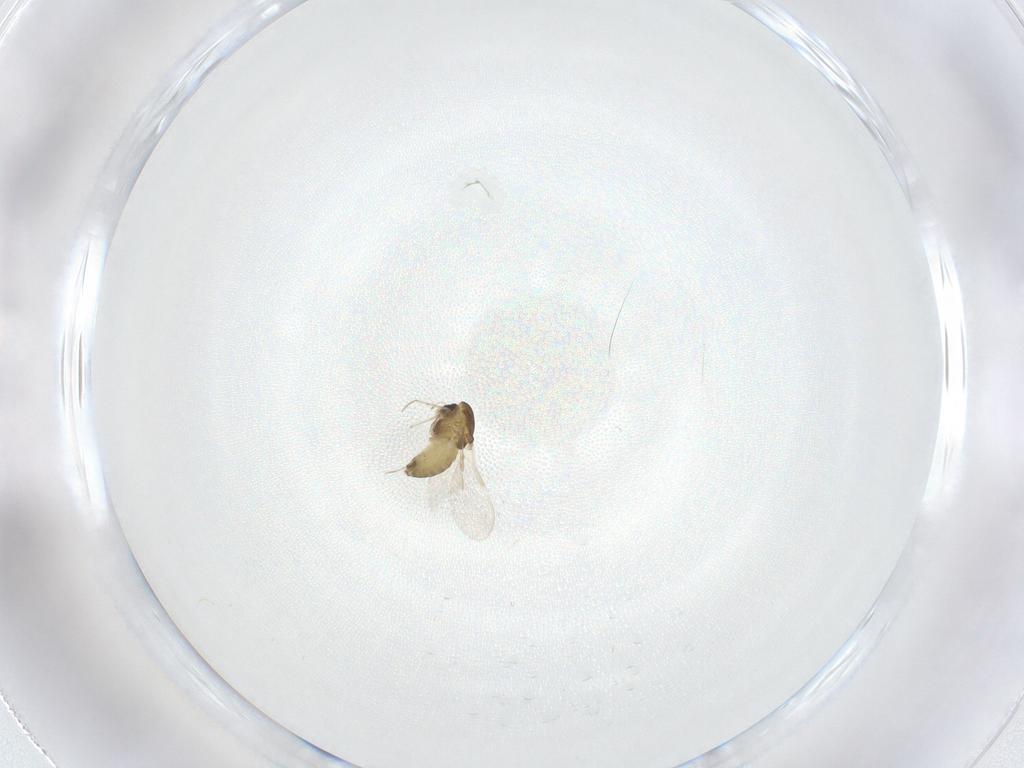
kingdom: Animalia
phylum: Arthropoda
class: Insecta
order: Diptera
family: Chironomidae
